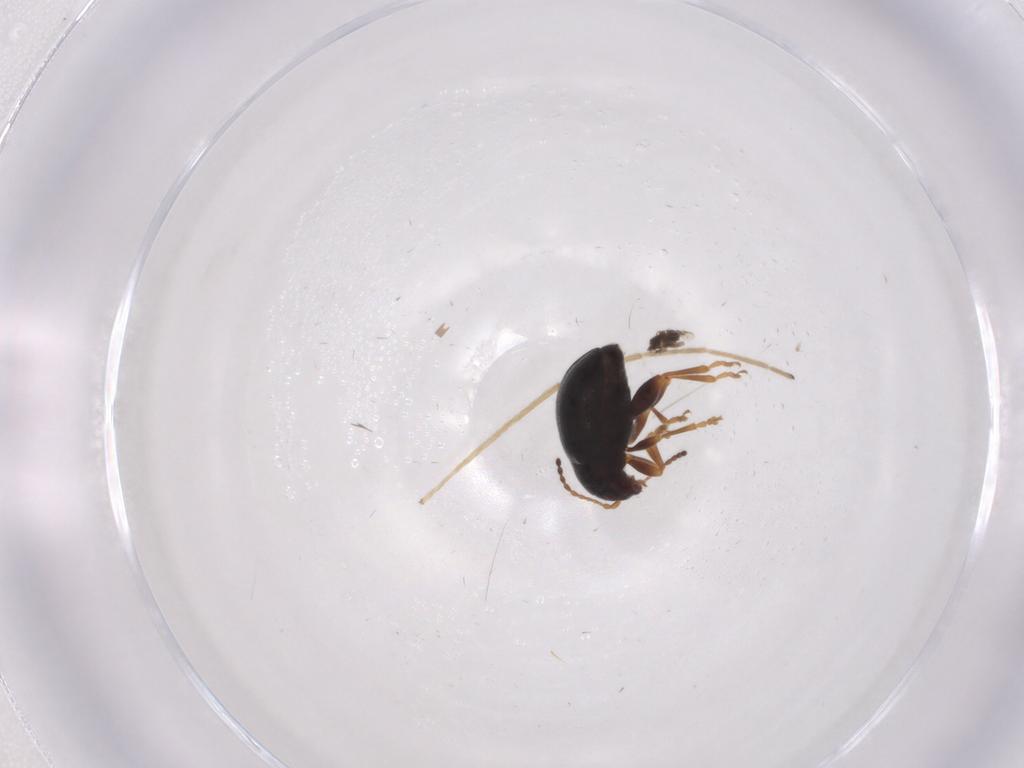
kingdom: Animalia
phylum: Arthropoda
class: Insecta
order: Coleoptera
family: Chrysomelidae
